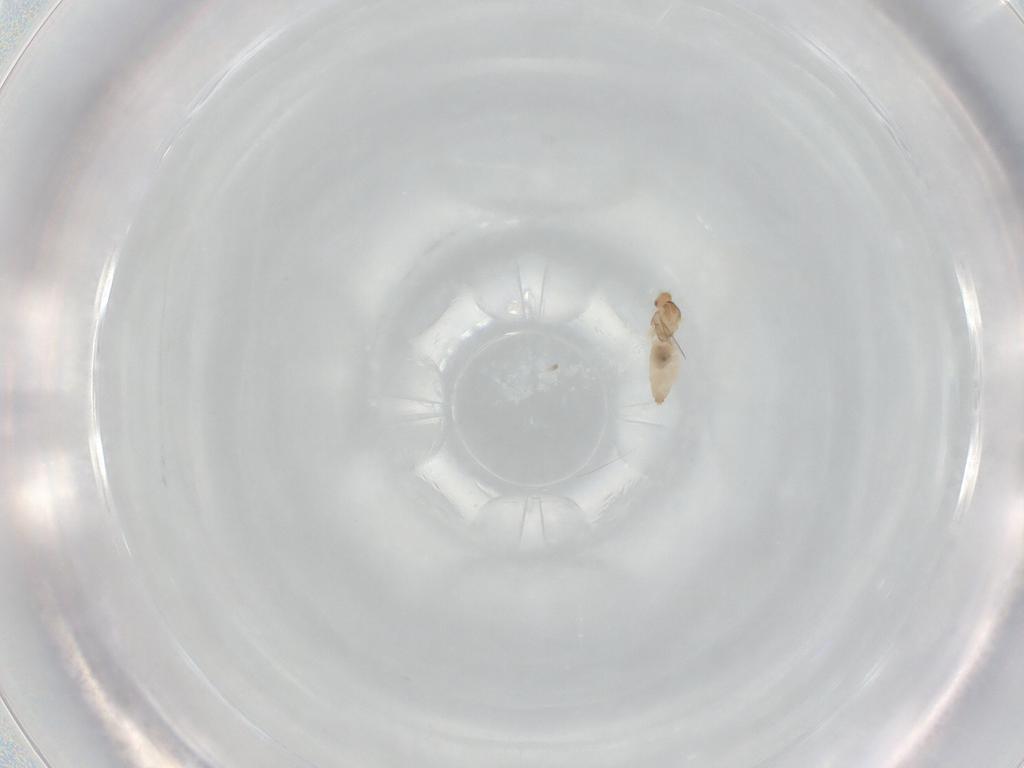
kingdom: Animalia
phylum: Arthropoda
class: Insecta
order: Diptera
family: Cecidomyiidae
